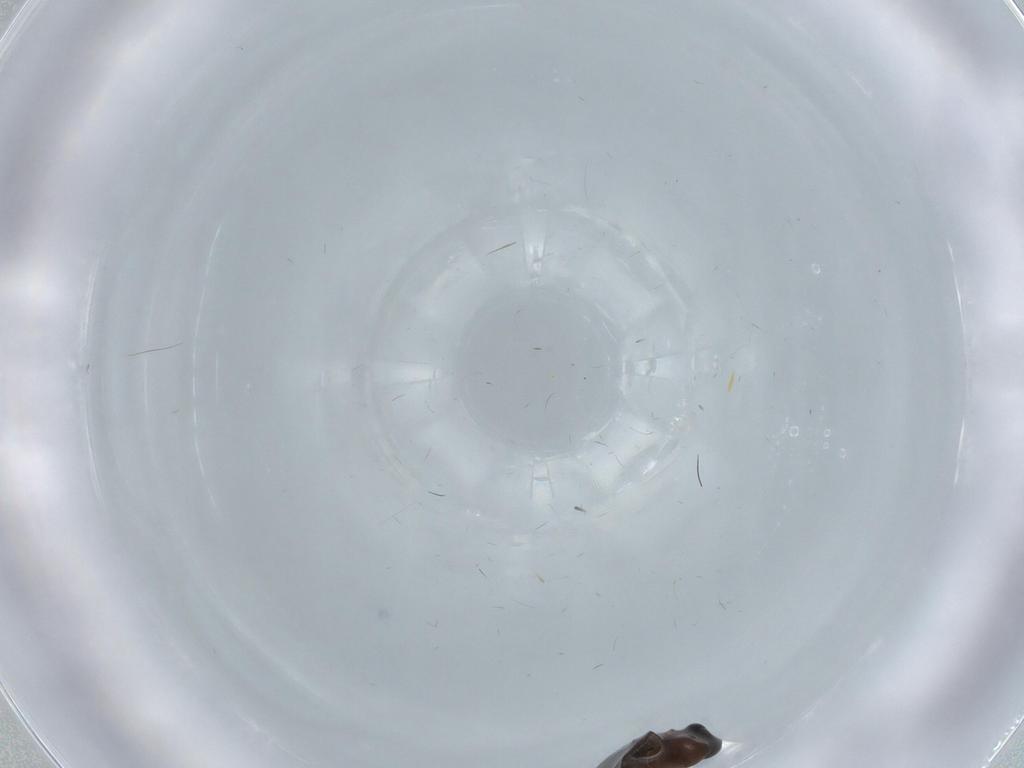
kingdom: Animalia
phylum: Arthropoda
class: Insecta
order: Diptera
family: Psychodidae
